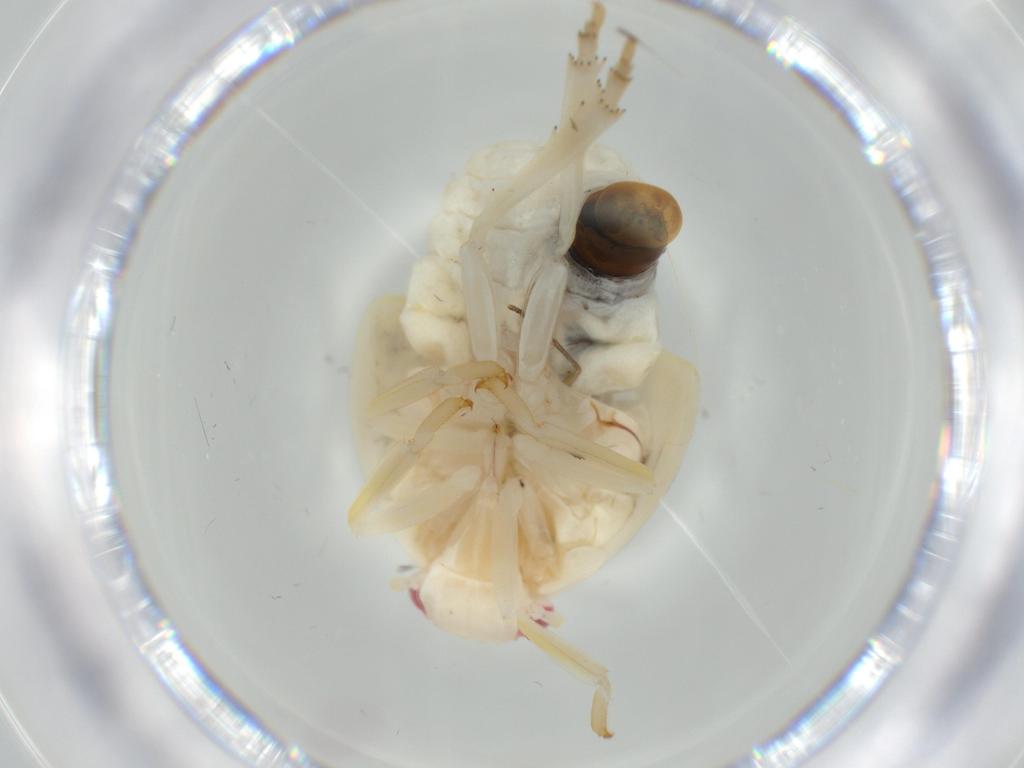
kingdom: Animalia
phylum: Arthropoda
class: Insecta
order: Hemiptera
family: Flatidae
